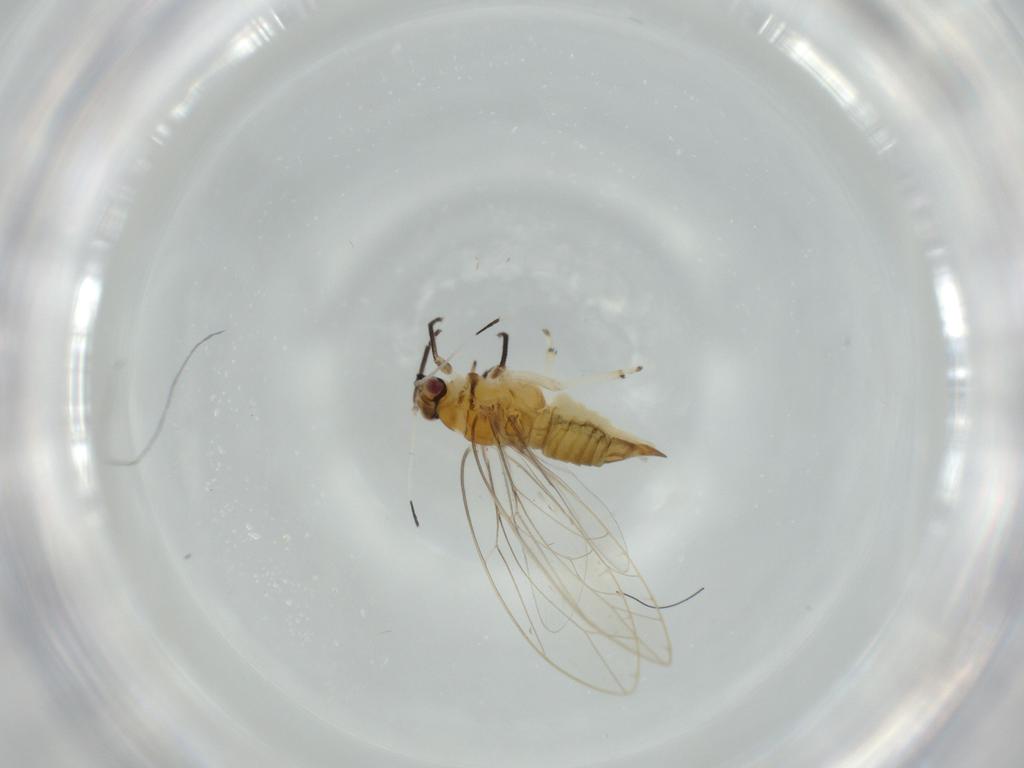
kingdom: Animalia
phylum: Arthropoda
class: Insecta
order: Hemiptera
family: Triozidae
